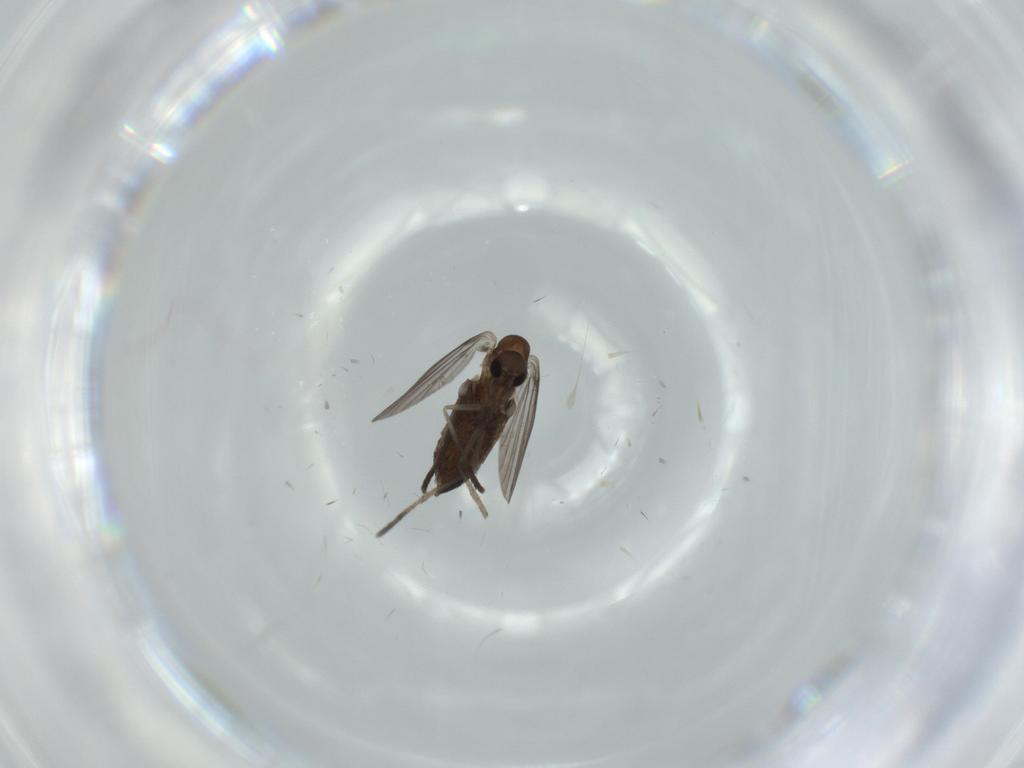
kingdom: Animalia
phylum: Arthropoda
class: Insecta
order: Diptera
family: Dolichopodidae
